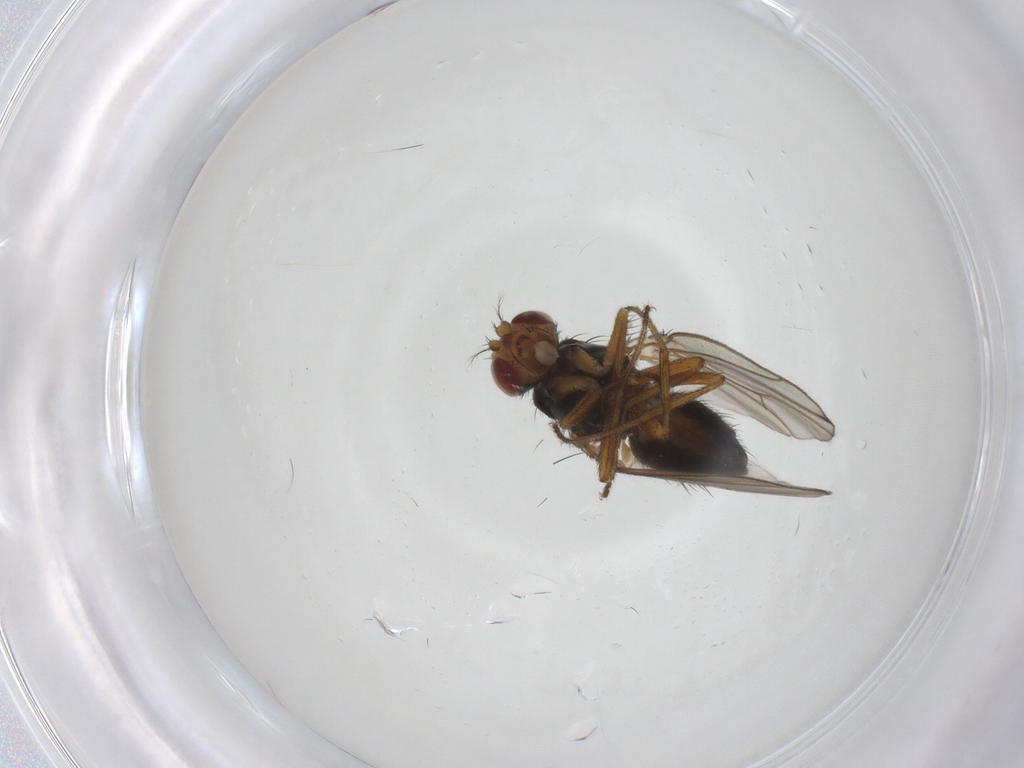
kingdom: Animalia
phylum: Arthropoda
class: Insecta
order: Diptera
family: Drosophilidae
